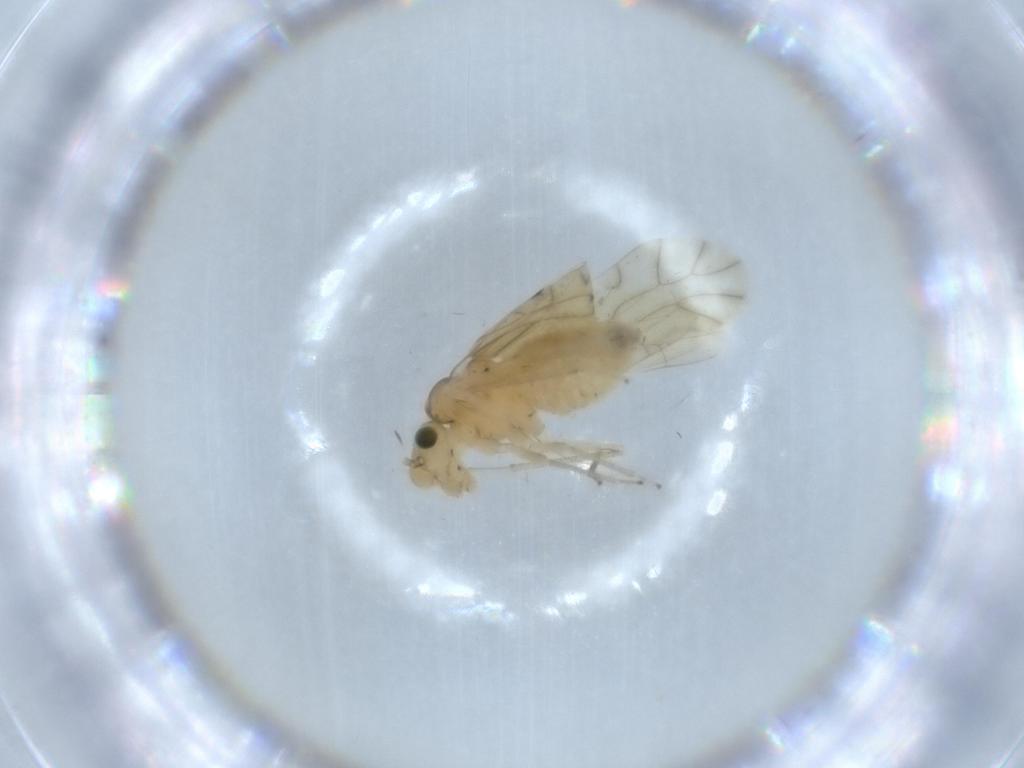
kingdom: Animalia
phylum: Arthropoda
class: Insecta
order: Psocodea
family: Caeciliusidae
